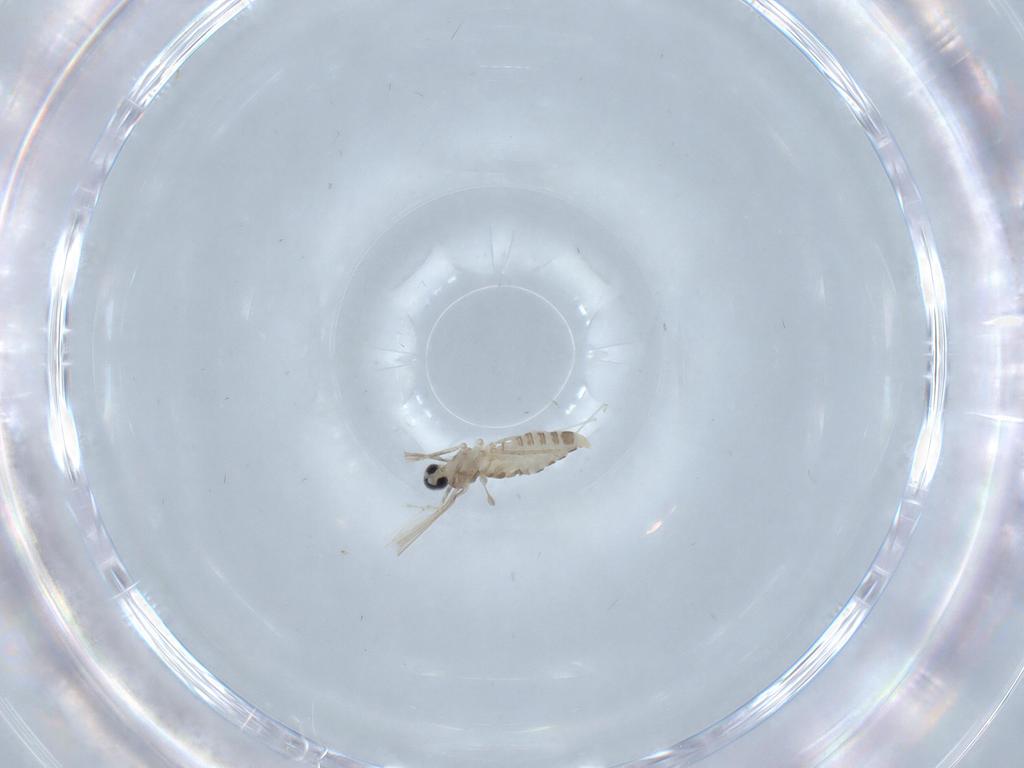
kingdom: Animalia
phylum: Arthropoda
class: Insecta
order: Diptera
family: Cecidomyiidae
